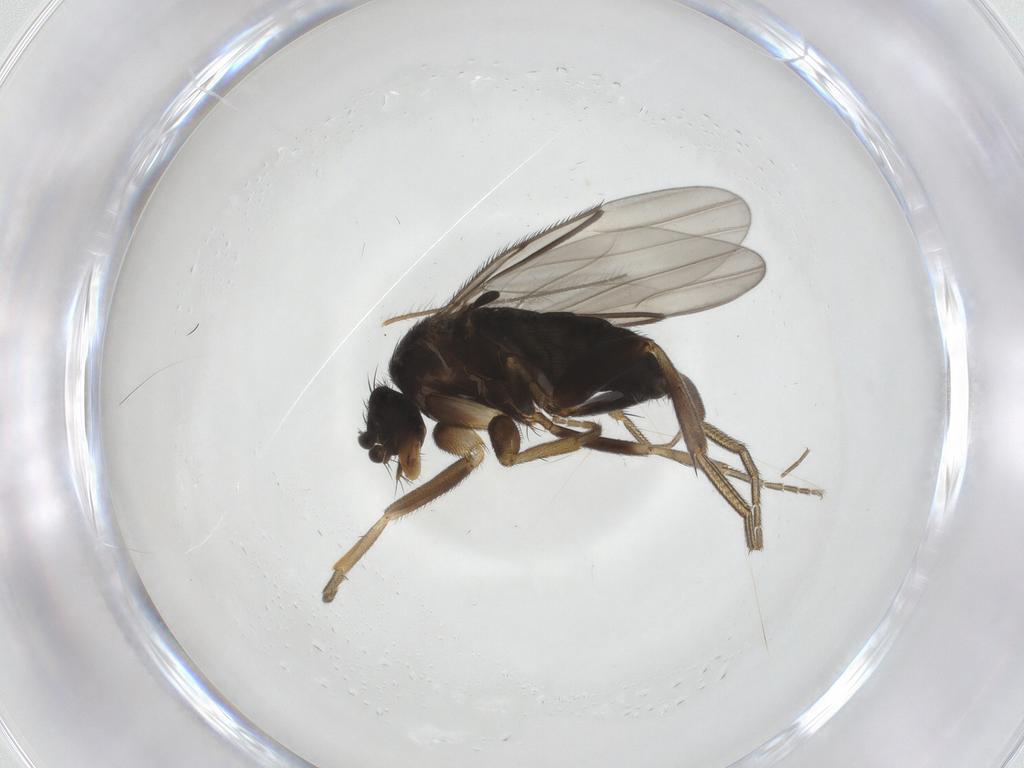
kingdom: Animalia
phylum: Arthropoda
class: Insecta
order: Diptera
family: Phoridae
